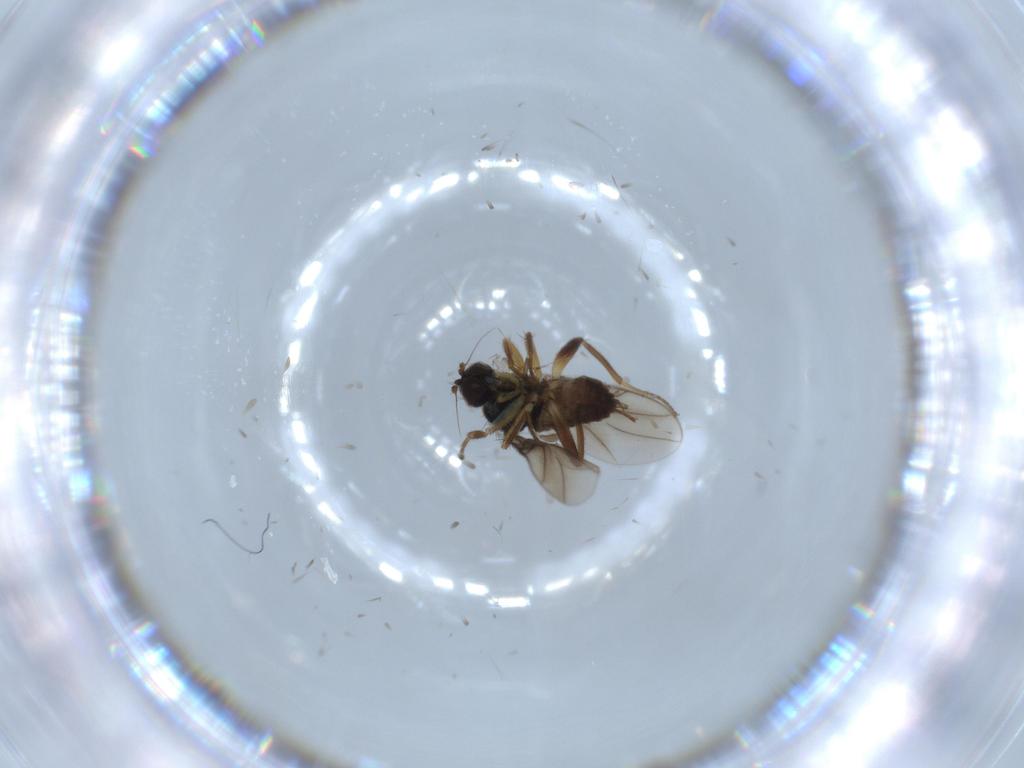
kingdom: Animalia
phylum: Arthropoda
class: Insecta
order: Diptera
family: Hybotidae
